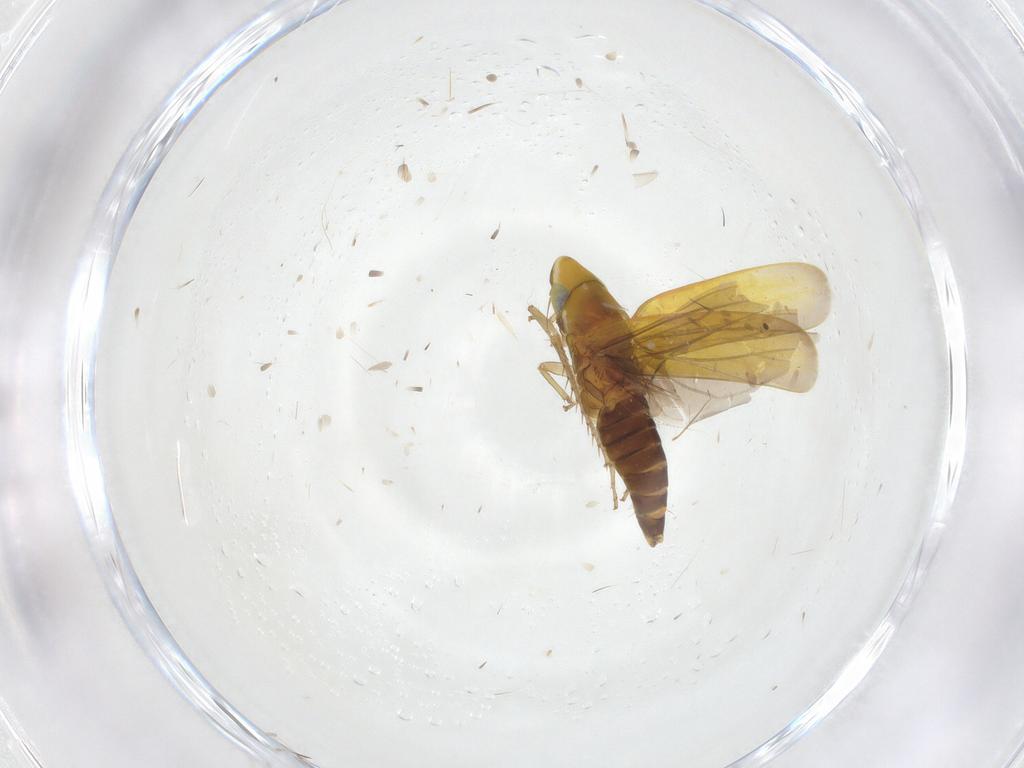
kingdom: Animalia
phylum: Arthropoda
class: Insecta
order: Hemiptera
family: Cicadellidae
